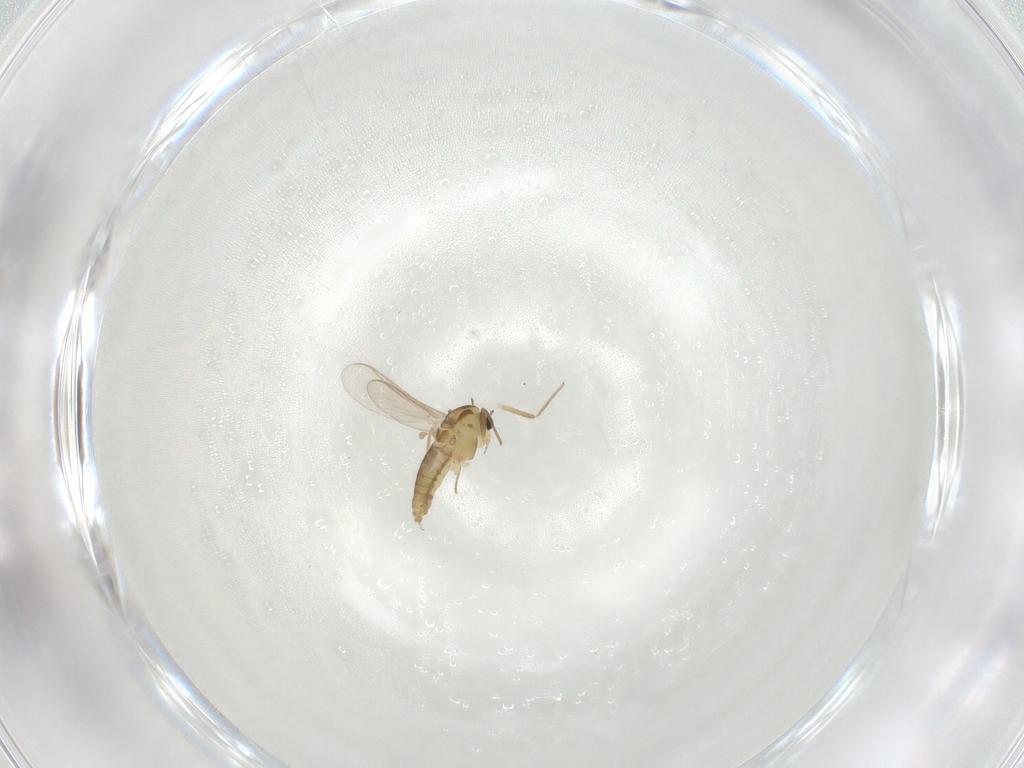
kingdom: Animalia
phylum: Arthropoda
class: Insecta
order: Diptera
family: Chironomidae
